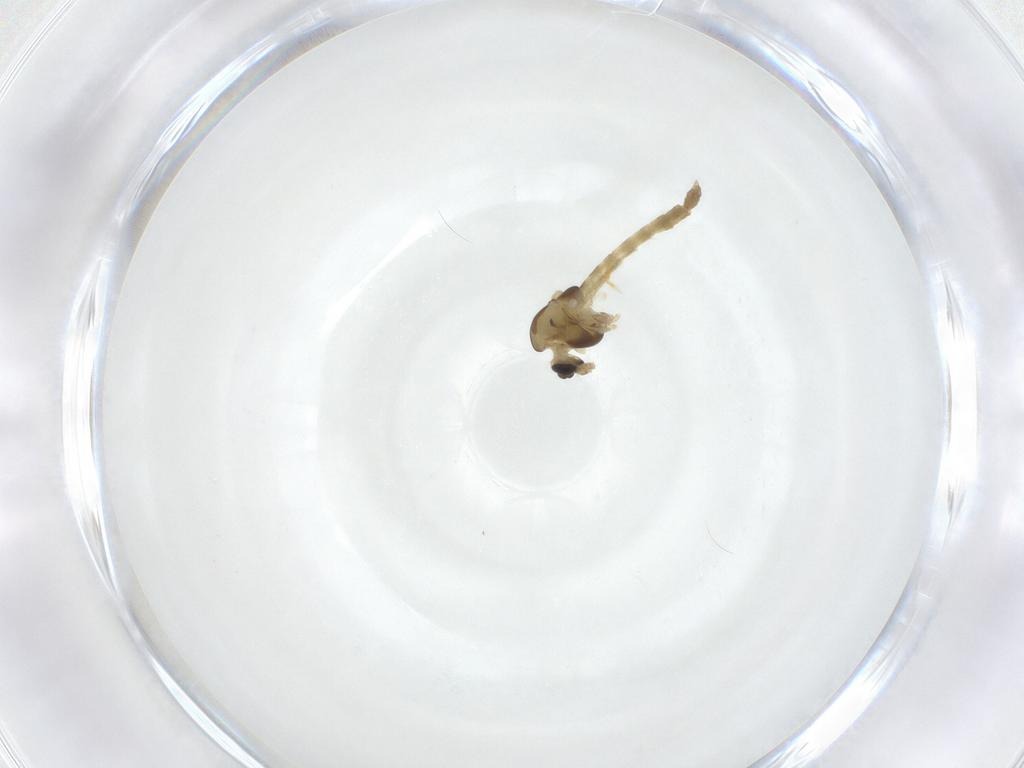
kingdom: Animalia
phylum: Arthropoda
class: Insecta
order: Diptera
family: Chironomidae
